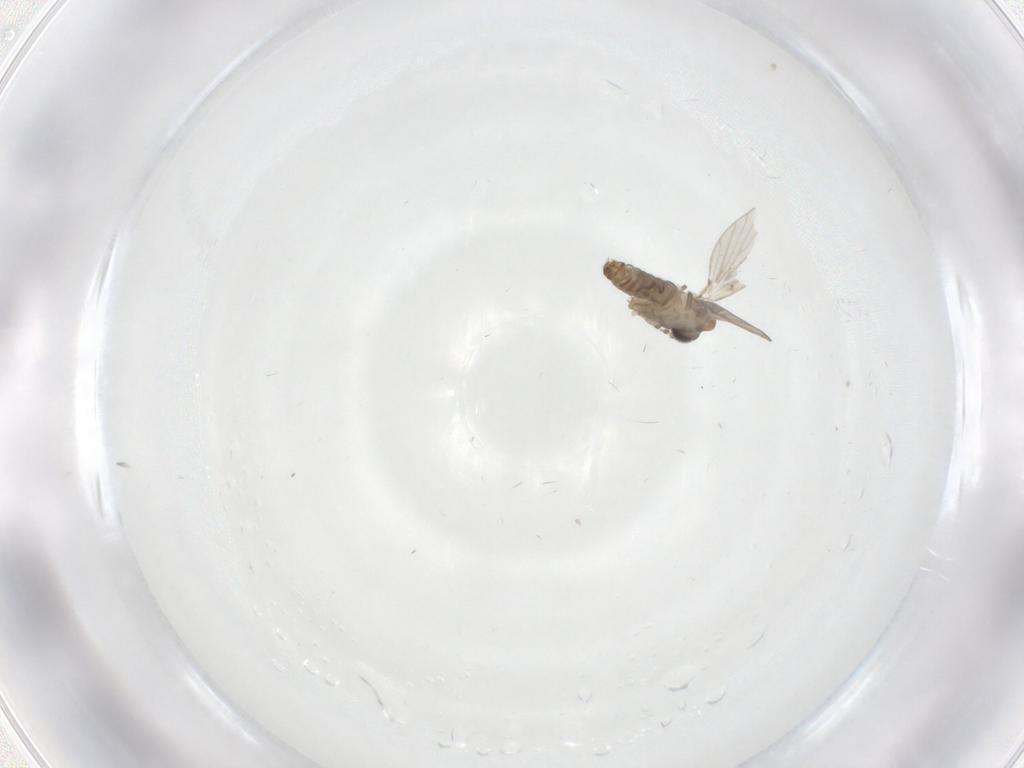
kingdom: Animalia
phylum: Arthropoda
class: Insecta
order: Diptera
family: Psychodidae
